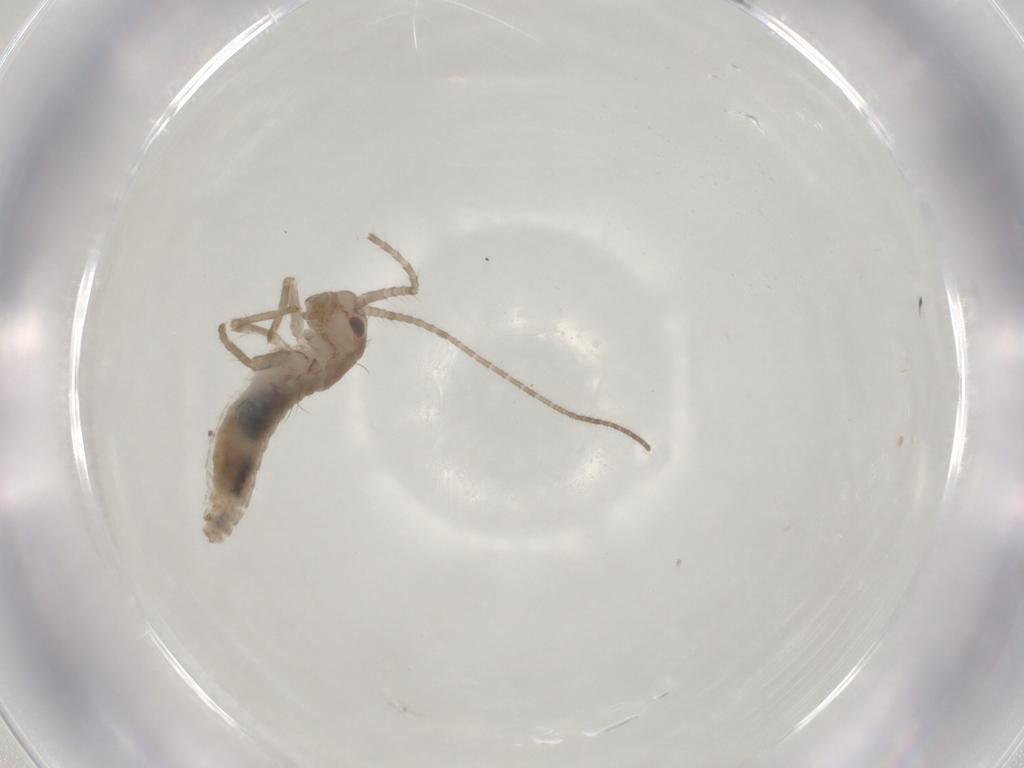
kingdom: Animalia
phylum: Arthropoda
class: Insecta
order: Orthoptera
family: Mogoplistidae
